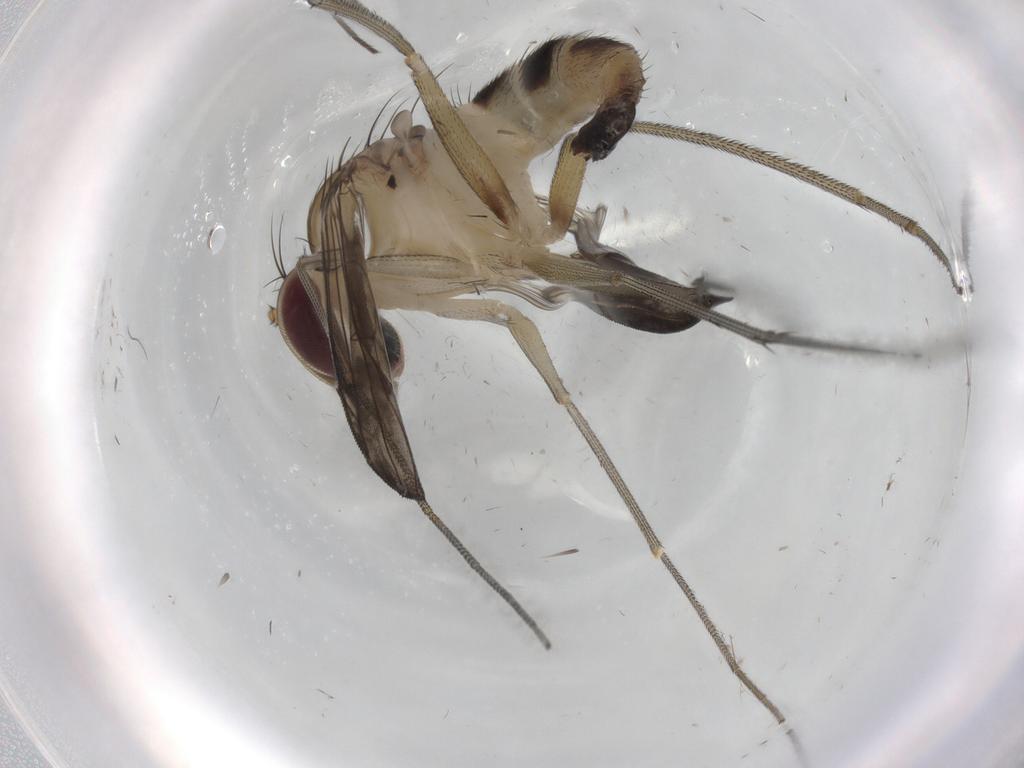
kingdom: Animalia
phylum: Arthropoda
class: Insecta
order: Diptera
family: Dolichopodidae
